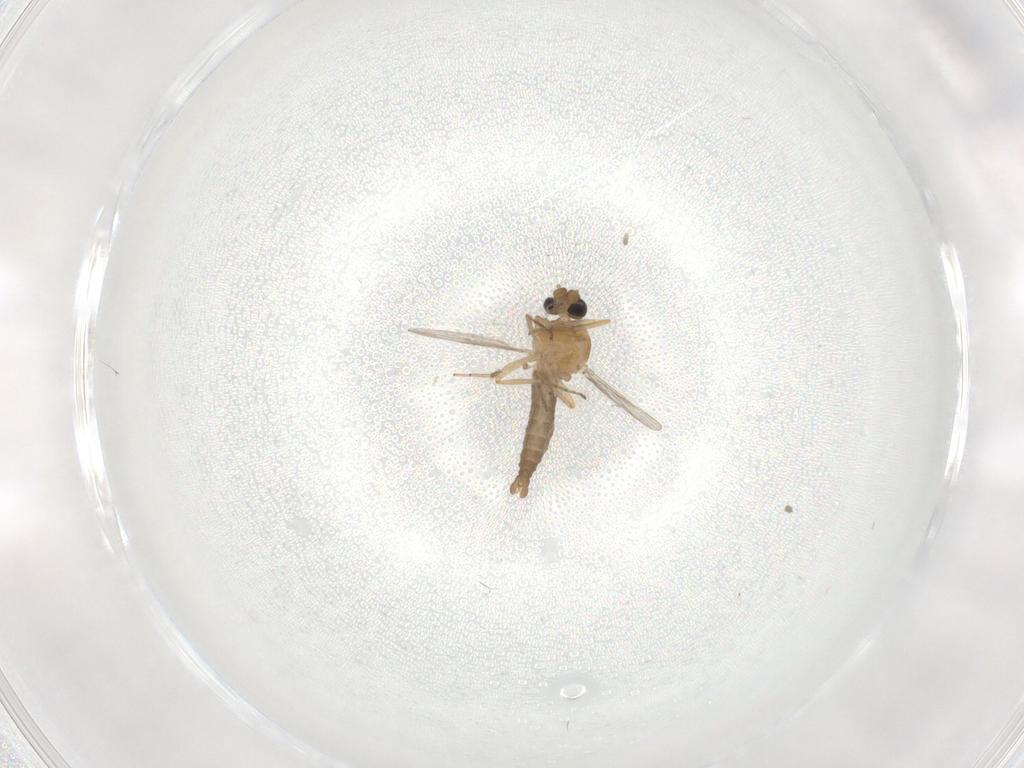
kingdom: Animalia
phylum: Arthropoda
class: Insecta
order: Diptera
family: Ceratopogonidae
